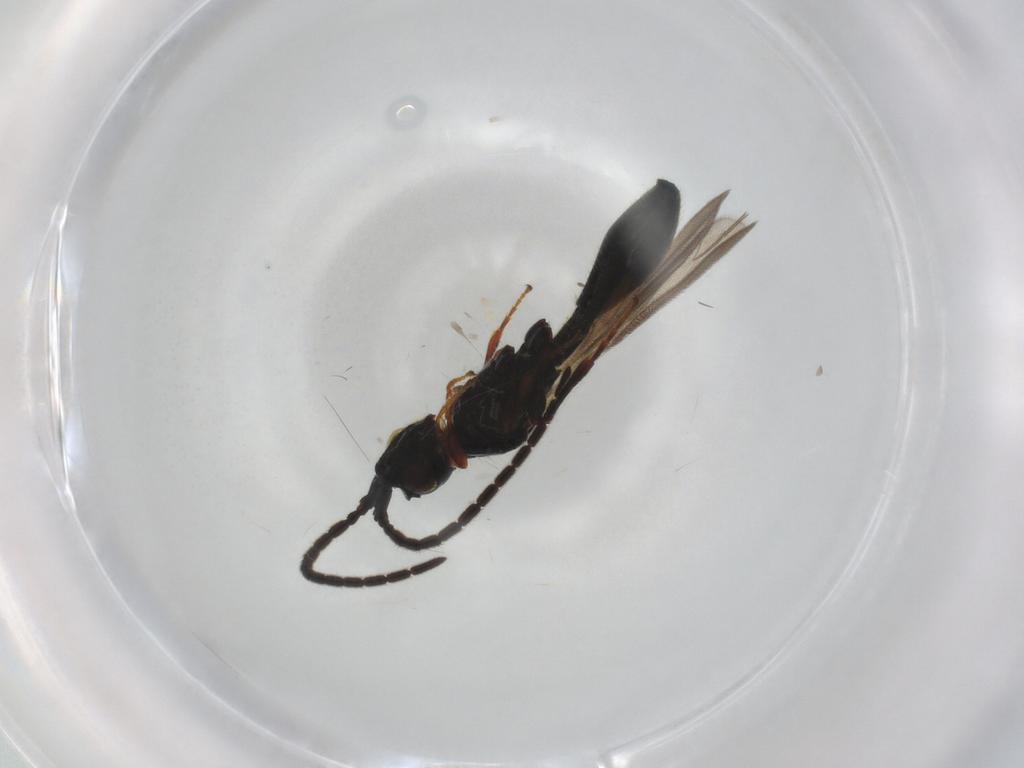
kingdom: Animalia
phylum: Arthropoda
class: Insecta
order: Hymenoptera
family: Diapriidae
